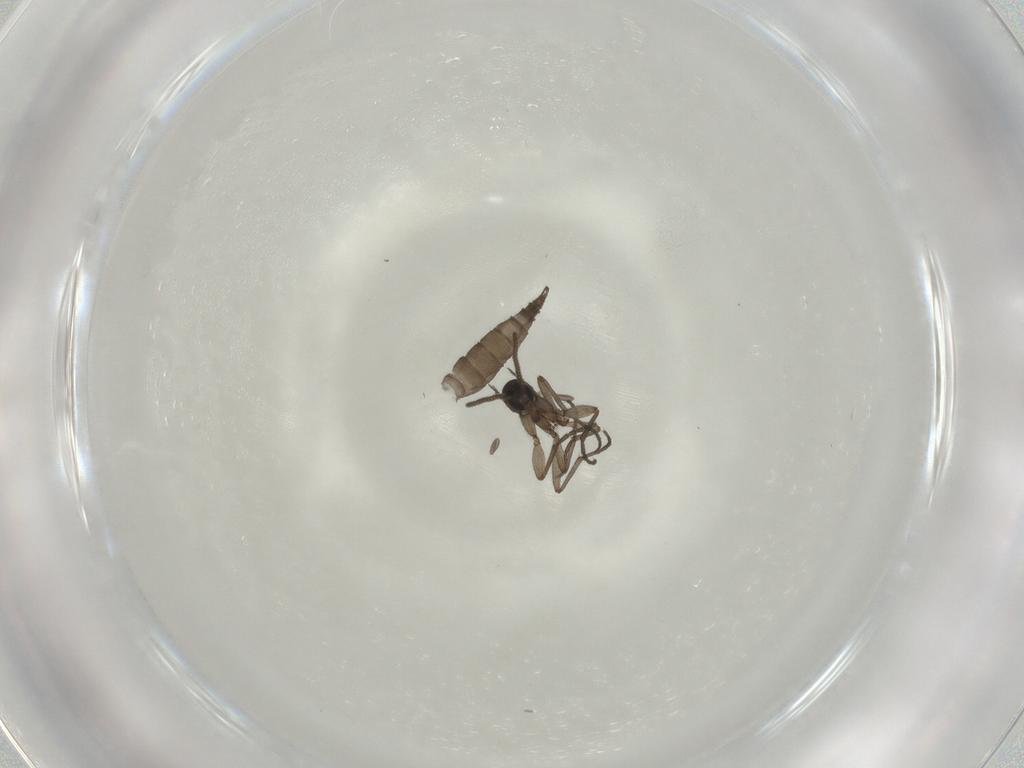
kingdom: Animalia
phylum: Arthropoda
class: Insecta
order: Diptera
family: Sciaridae
